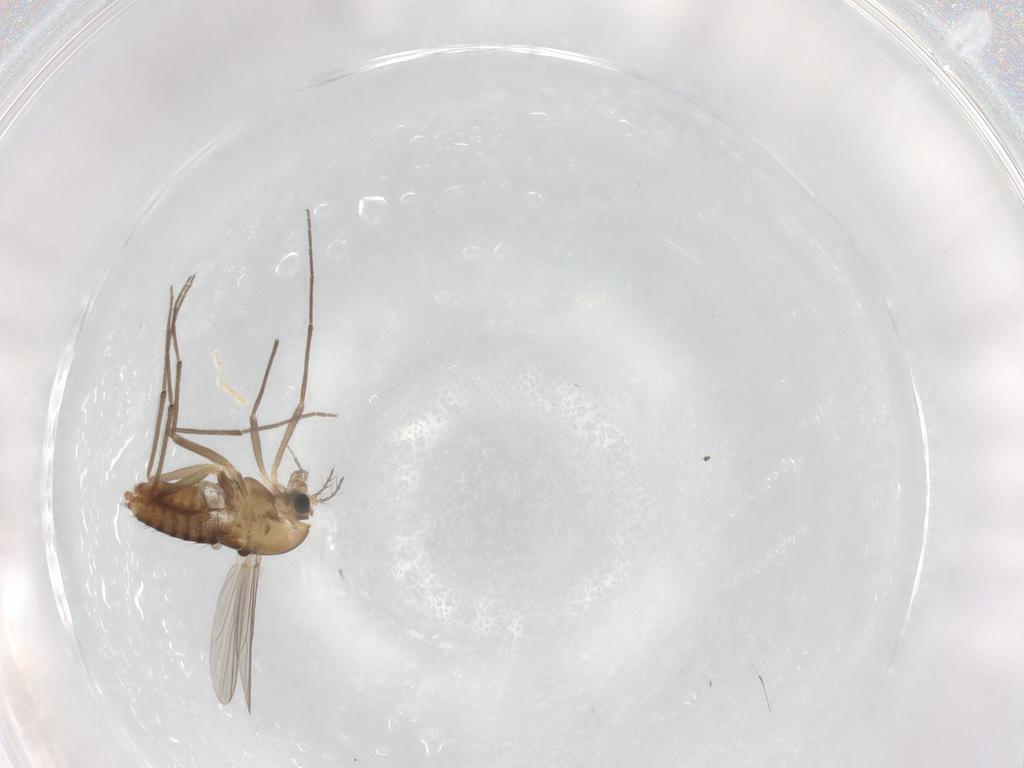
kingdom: Animalia
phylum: Arthropoda
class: Insecta
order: Diptera
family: Chironomidae
